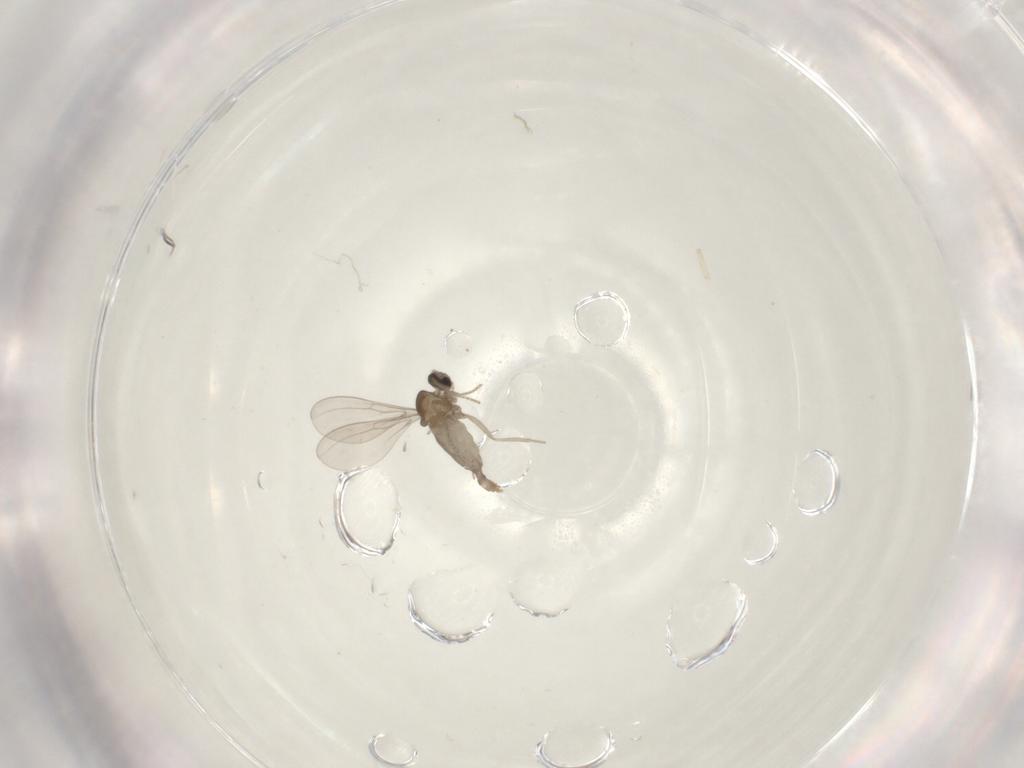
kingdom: Animalia
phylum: Arthropoda
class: Insecta
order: Diptera
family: Cecidomyiidae
